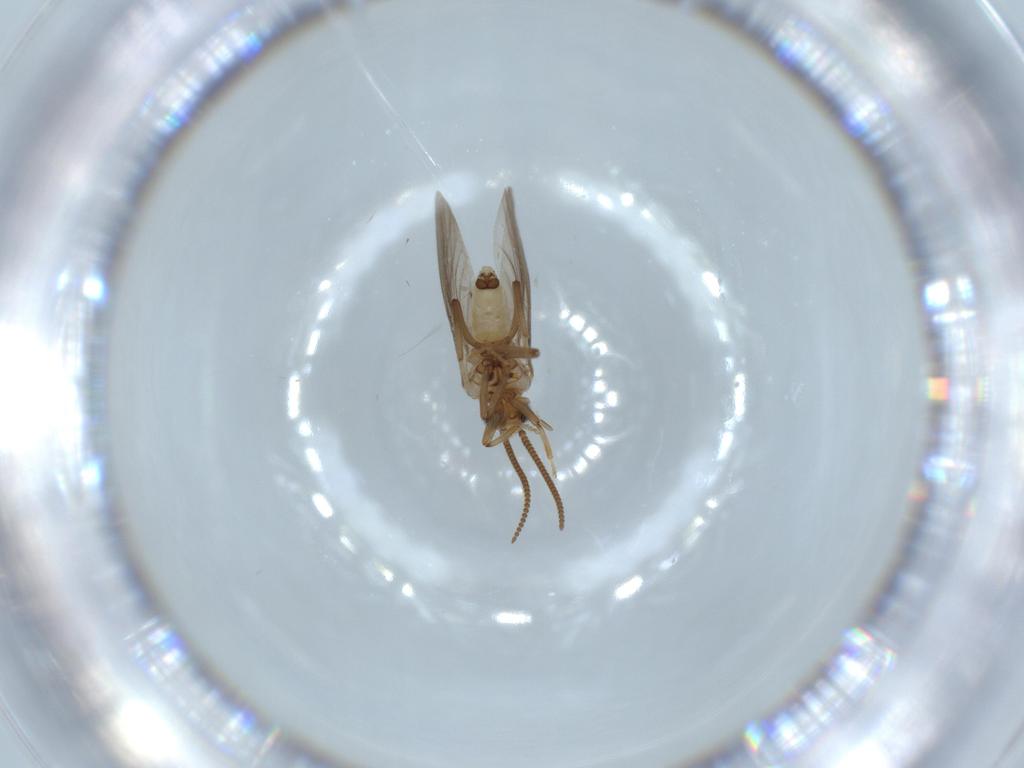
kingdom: Animalia
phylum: Arthropoda
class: Insecta
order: Neuroptera
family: Coniopterygidae
